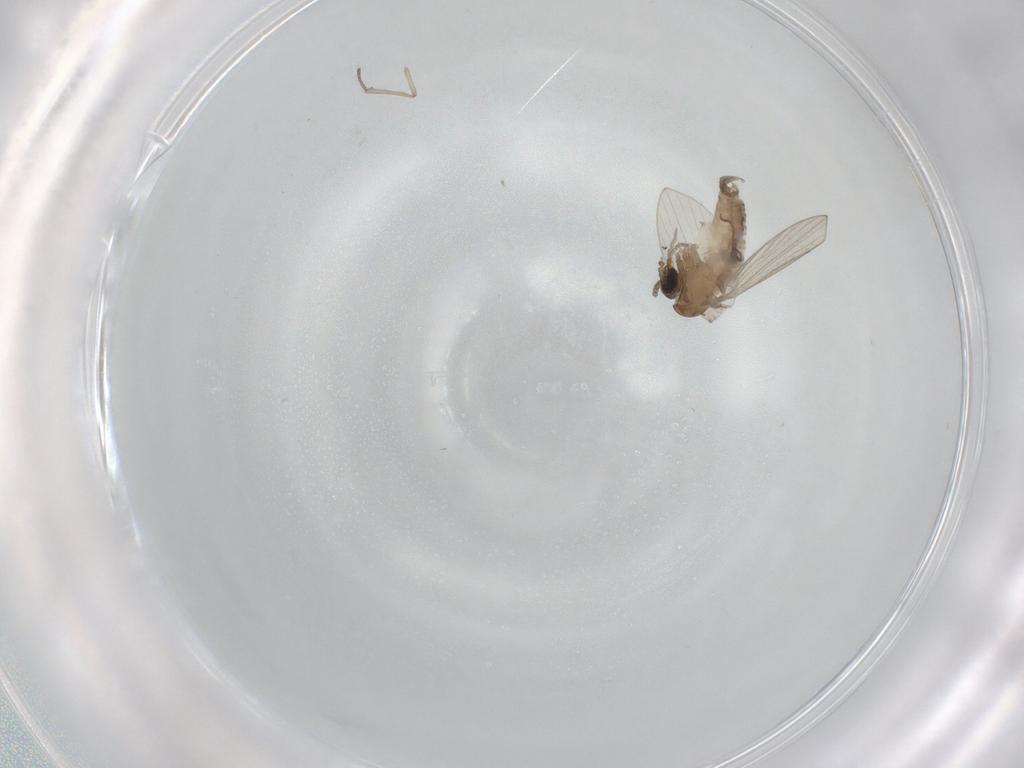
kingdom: Animalia
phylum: Arthropoda
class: Insecta
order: Diptera
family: Psychodidae
